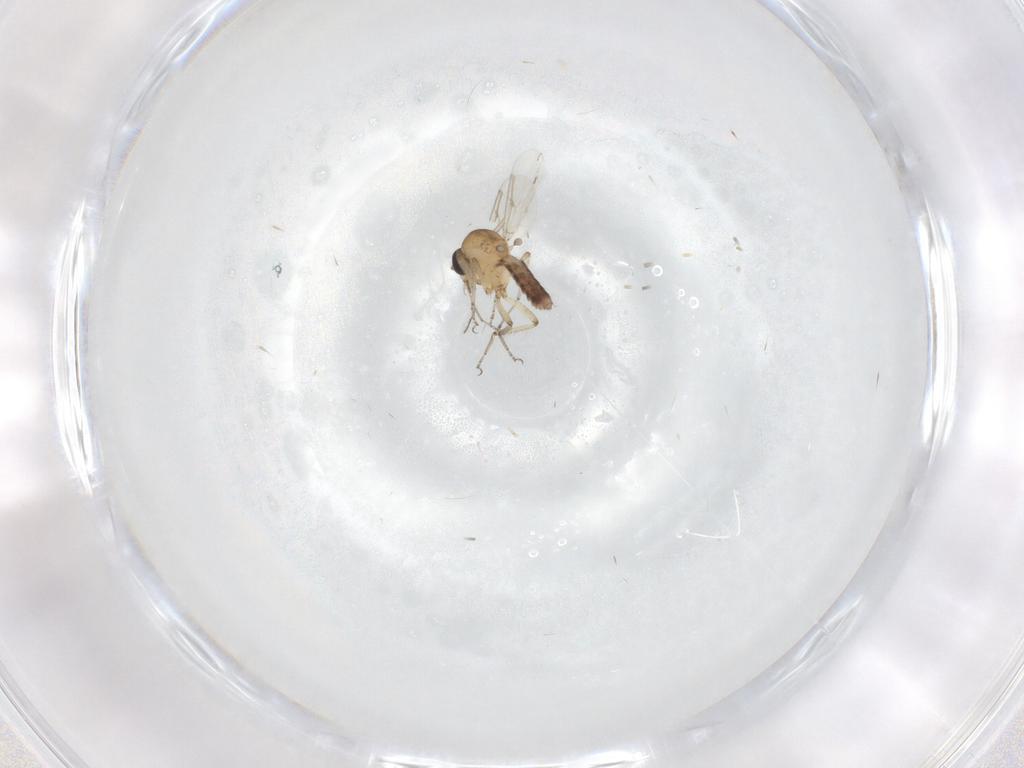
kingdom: Animalia
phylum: Arthropoda
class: Insecta
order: Diptera
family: Ceratopogonidae
